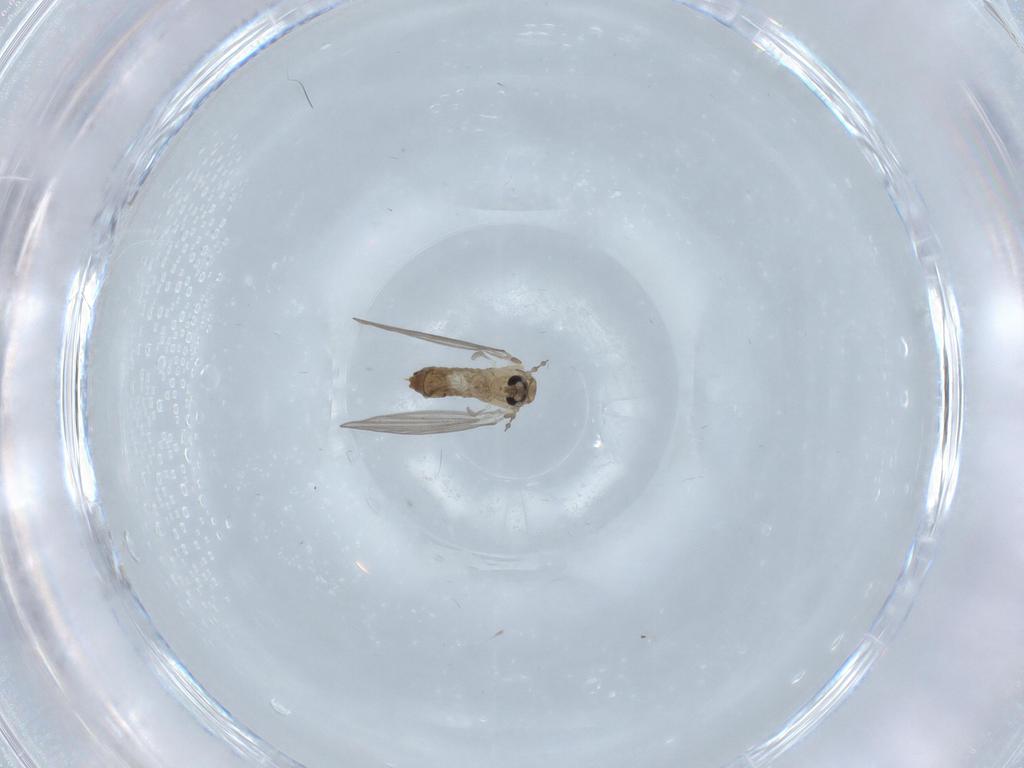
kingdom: Animalia
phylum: Arthropoda
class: Insecta
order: Diptera
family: Psychodidae
